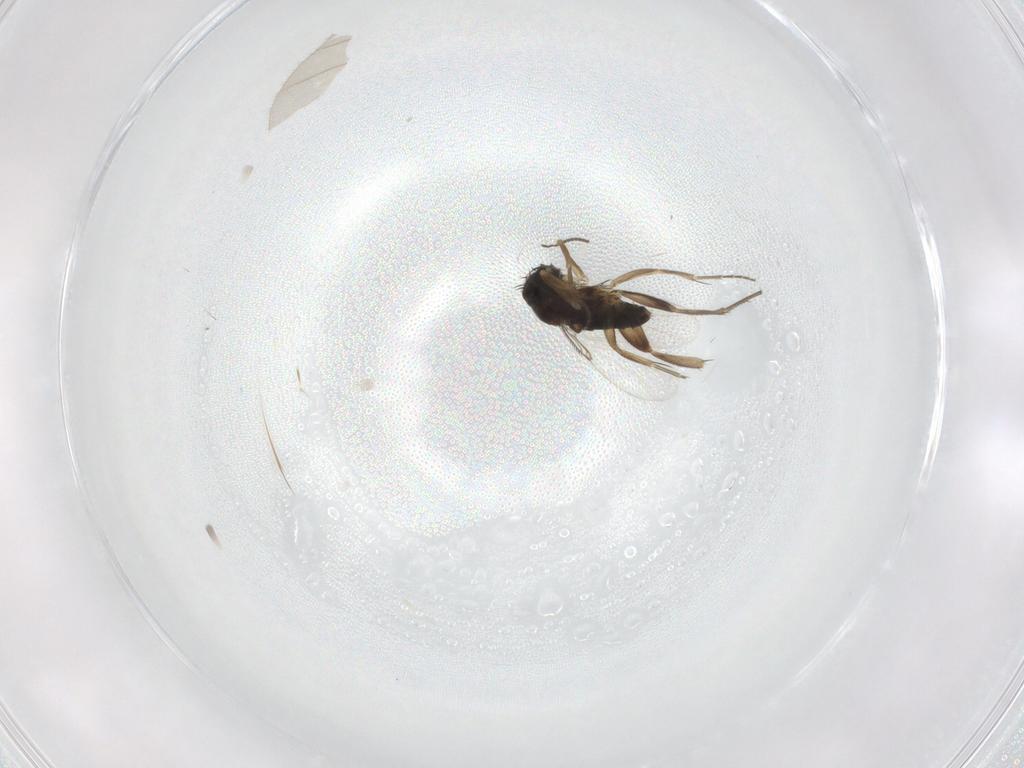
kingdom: Animalia
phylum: Arthropoda
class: Insecta
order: Diptera
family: Phoridae
